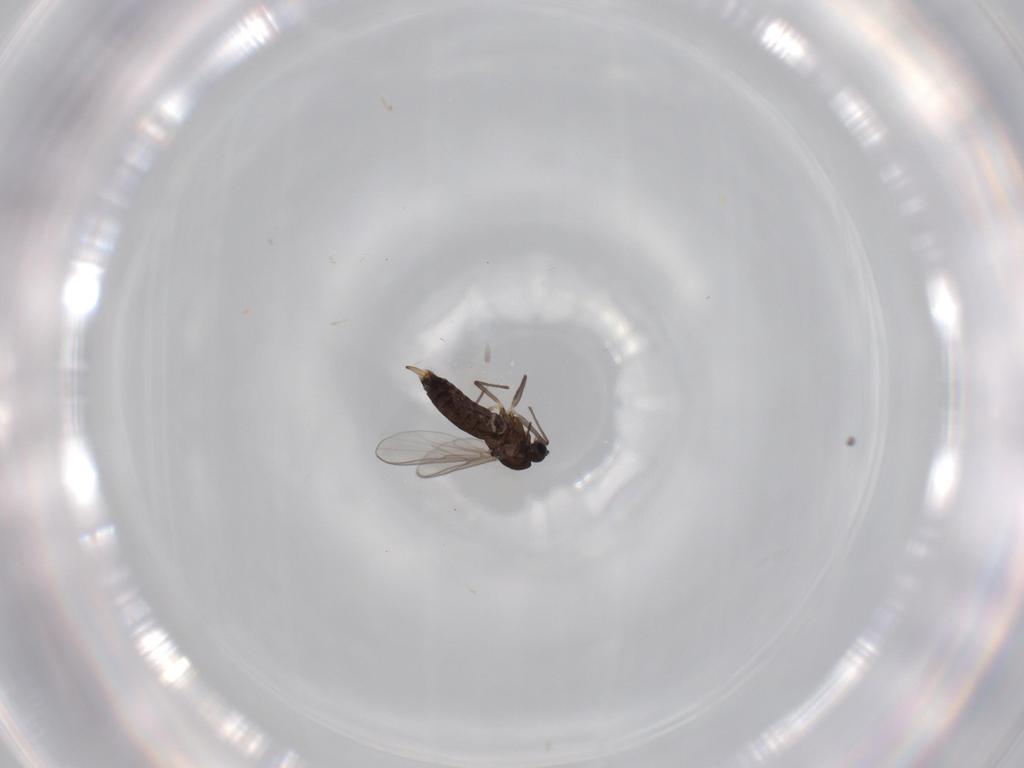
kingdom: Animalia
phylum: Arthropoda
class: Insecta
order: Diptera
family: Chironomidae
